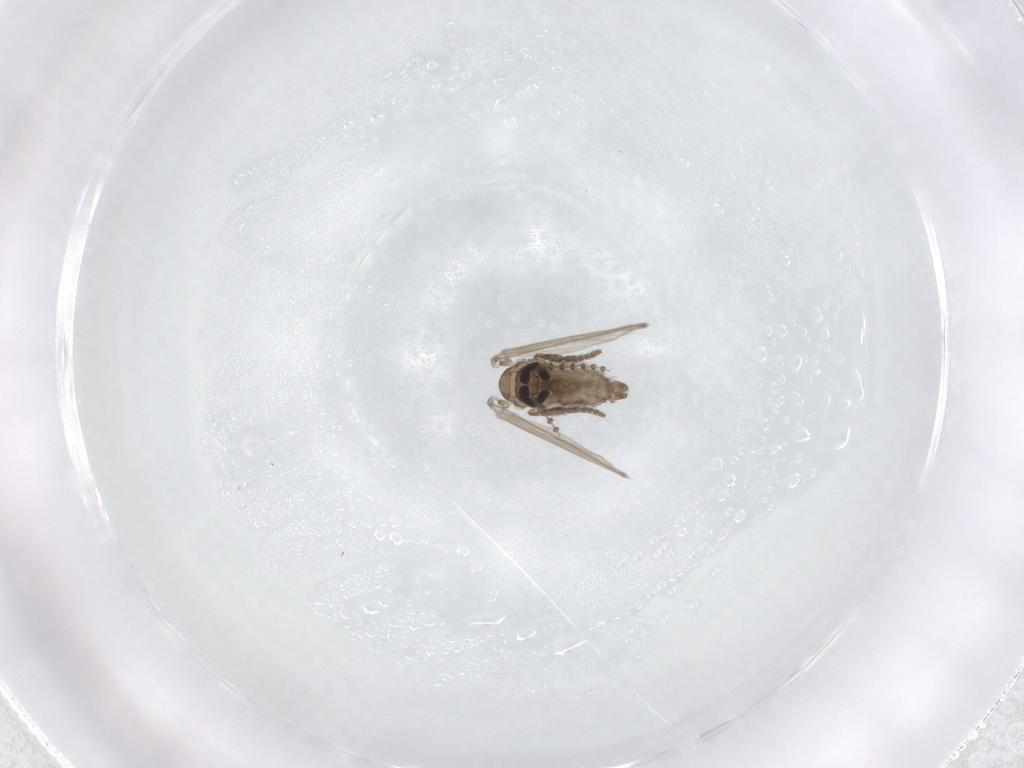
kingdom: Animalia
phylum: Arthropoda
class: Insecta
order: Diptera
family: Psychodidae
